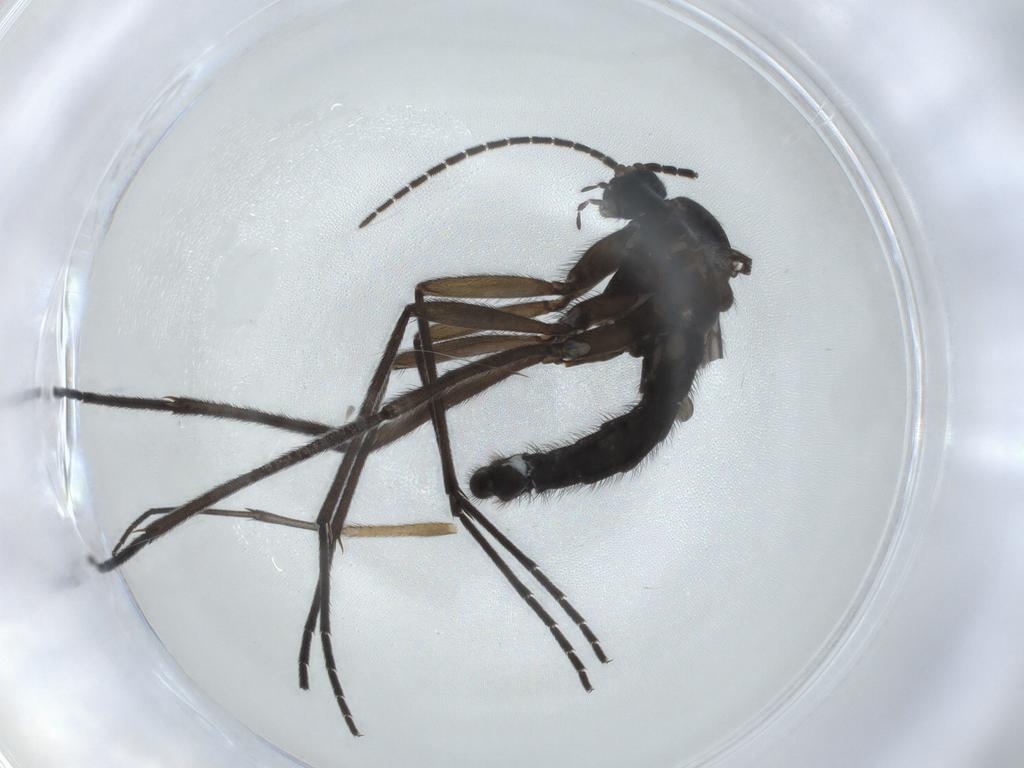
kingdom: Animalia
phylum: Arthropoda
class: Insecta
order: Diptera
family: Sciaridae
